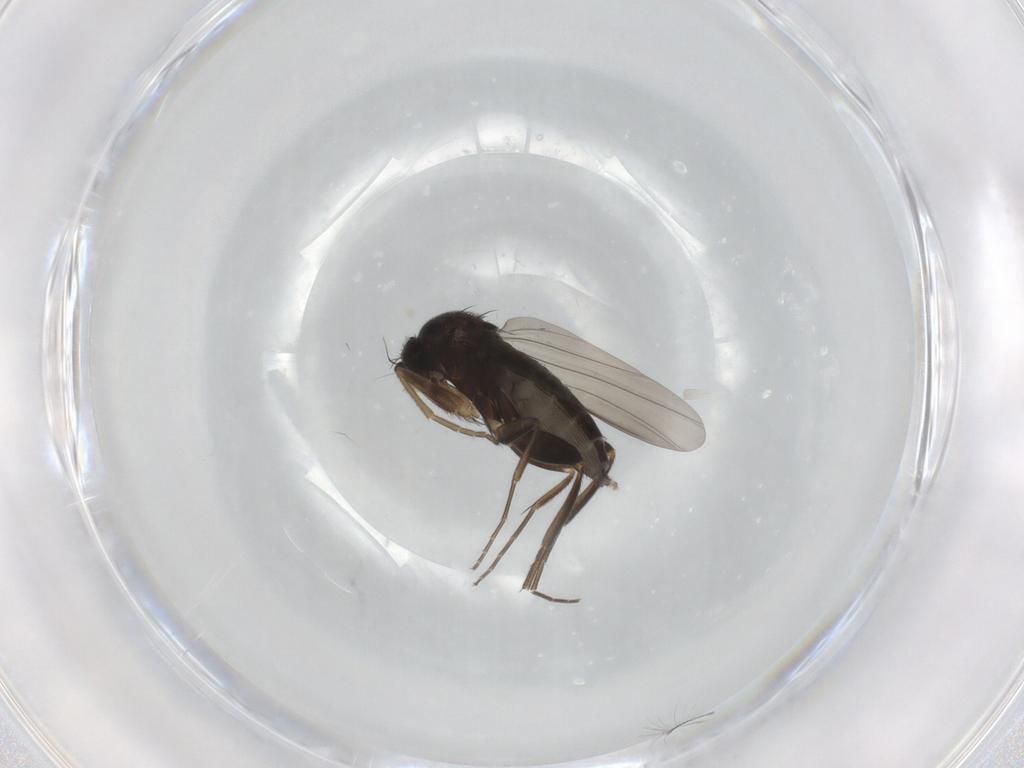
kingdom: Animalia
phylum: Arthropoda
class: Insecta
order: Diptera
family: Phoridae
